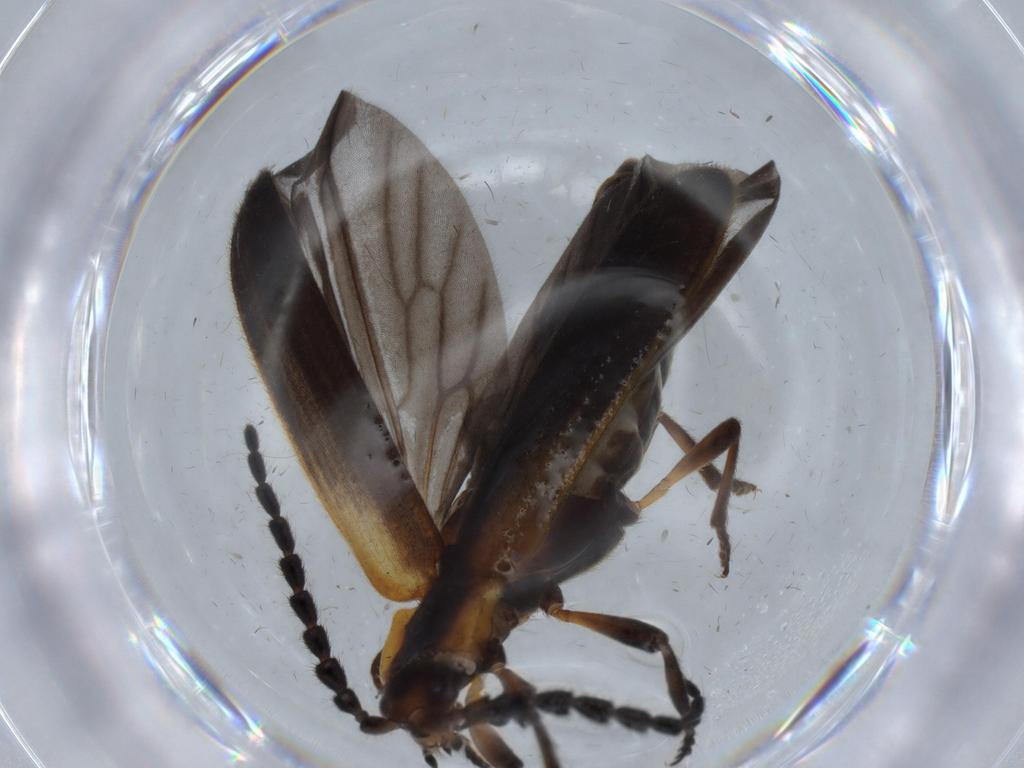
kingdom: Animalia
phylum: Arthropoda
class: Insecta
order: Coleoptera
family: Lycidae
